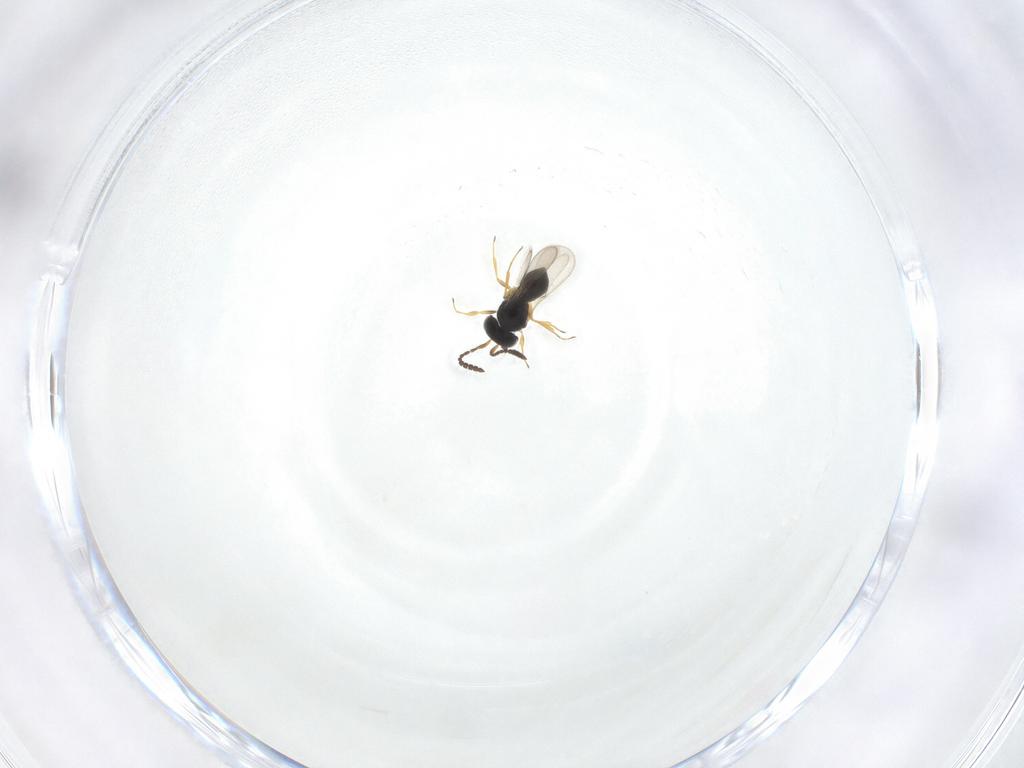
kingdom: Animalia
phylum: Arthropoda
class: Insecta
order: Hymenoptera
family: Scelionidae
